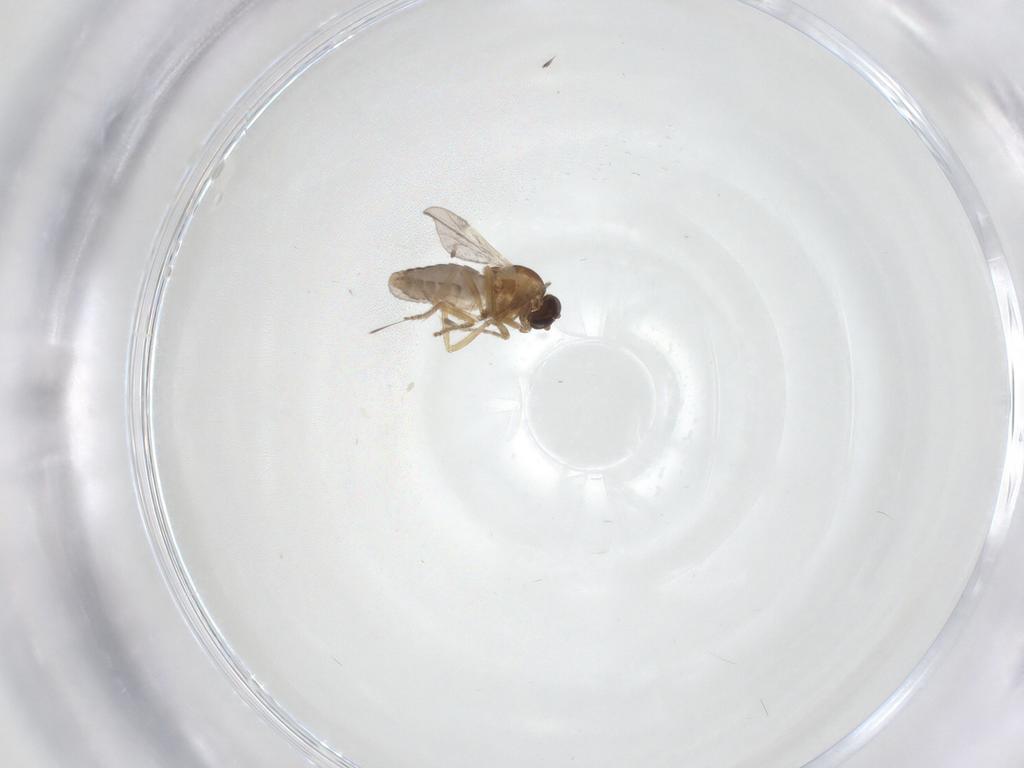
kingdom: Animalia
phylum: Arthropoda
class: Insecta
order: Diptera
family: Ceratopogonidae
